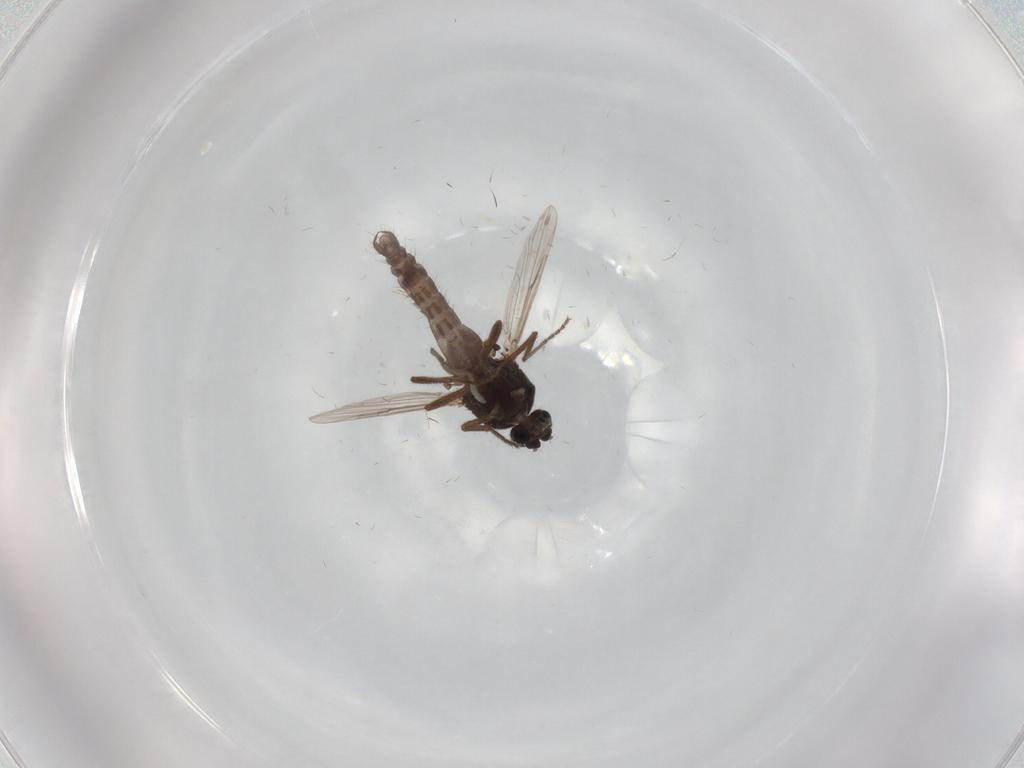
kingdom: Animalia
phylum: Arthropoda
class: Insecta
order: Diptera
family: Ceratopogonidae
